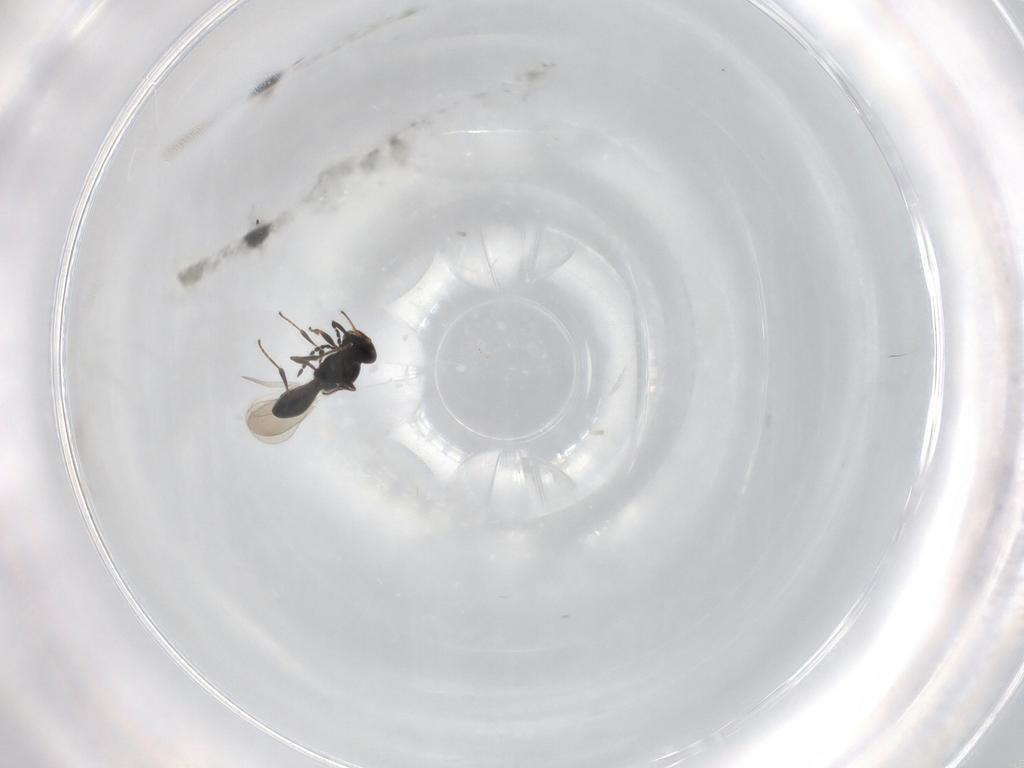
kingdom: Animalia
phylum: Arthropoda
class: Insecta
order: Hymenoptera
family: Platygastridae
